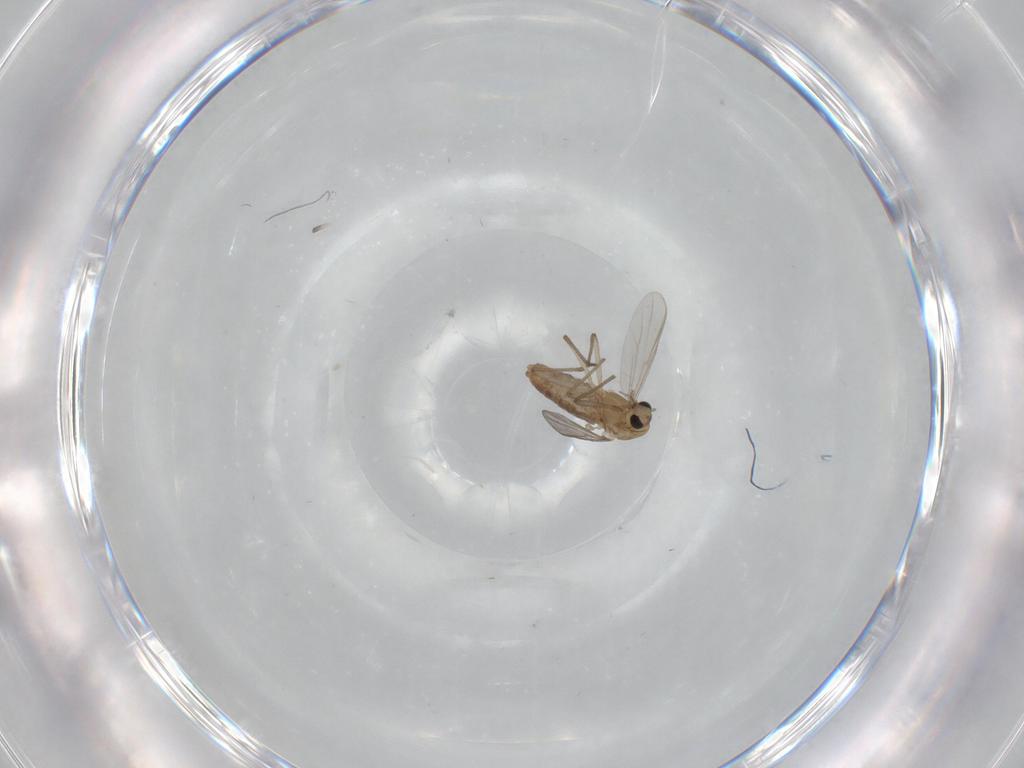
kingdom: Animalia
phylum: Arthropoda
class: Insecta
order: Diptera
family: Chironomidae
